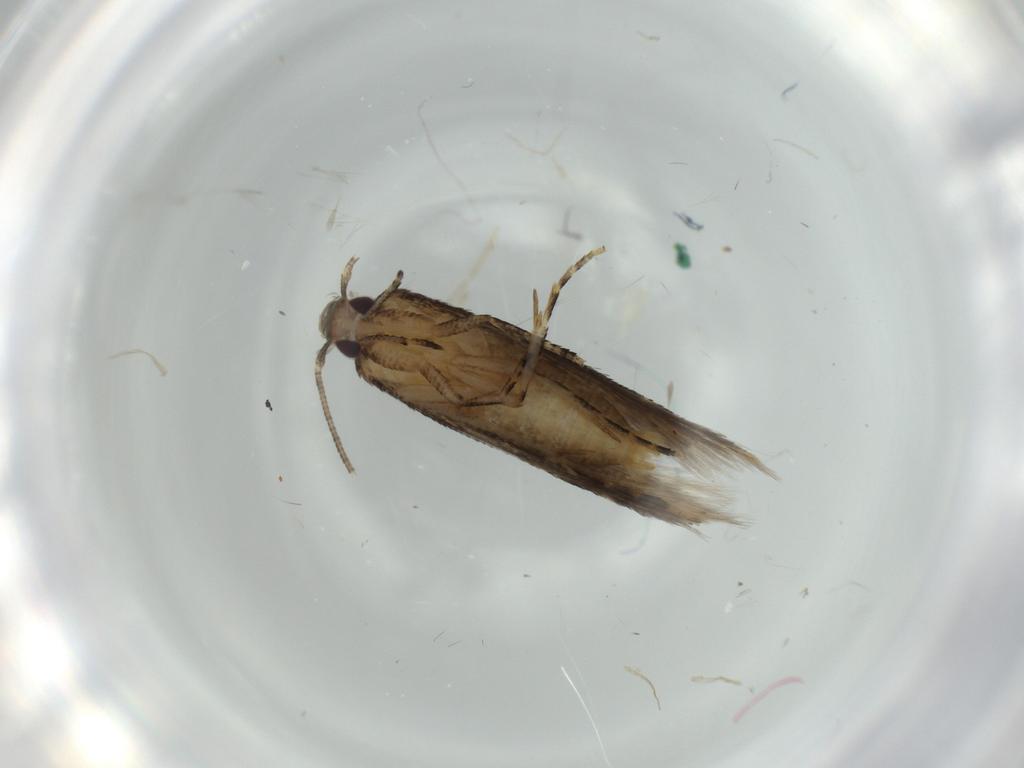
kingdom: Animalia
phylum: Arthropoda
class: Insecta
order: Lepidoptera
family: Stathmopodidae
